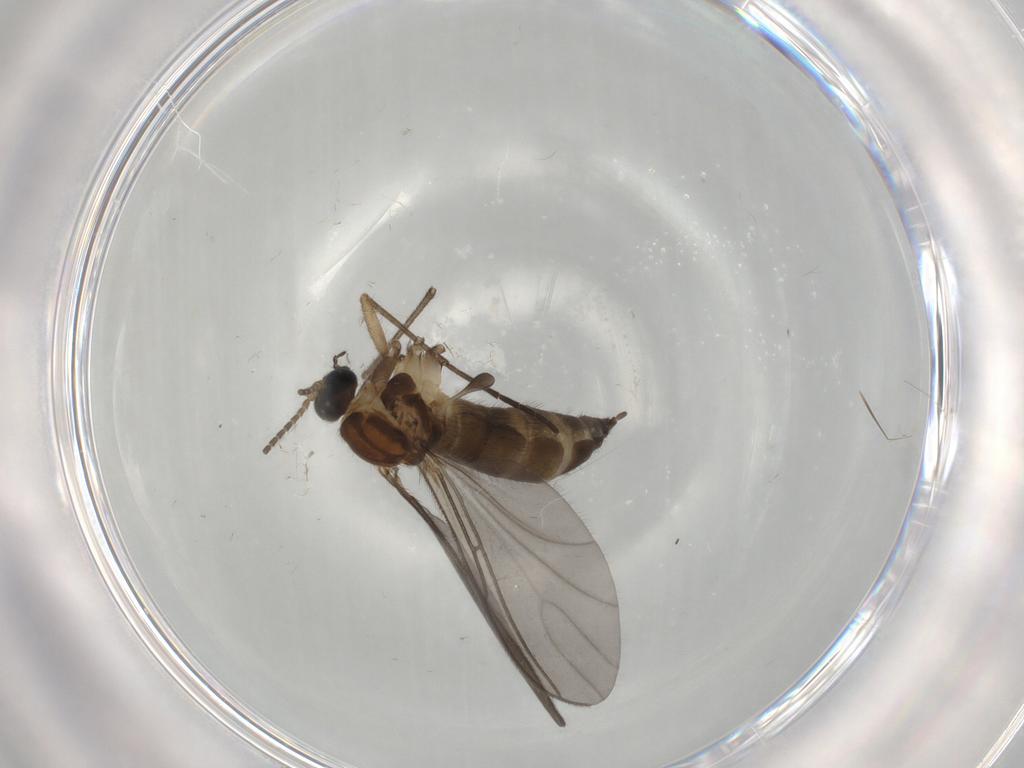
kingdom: Animalia
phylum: Arthropoda
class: Insecta
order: Diptera
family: Sciaridae
